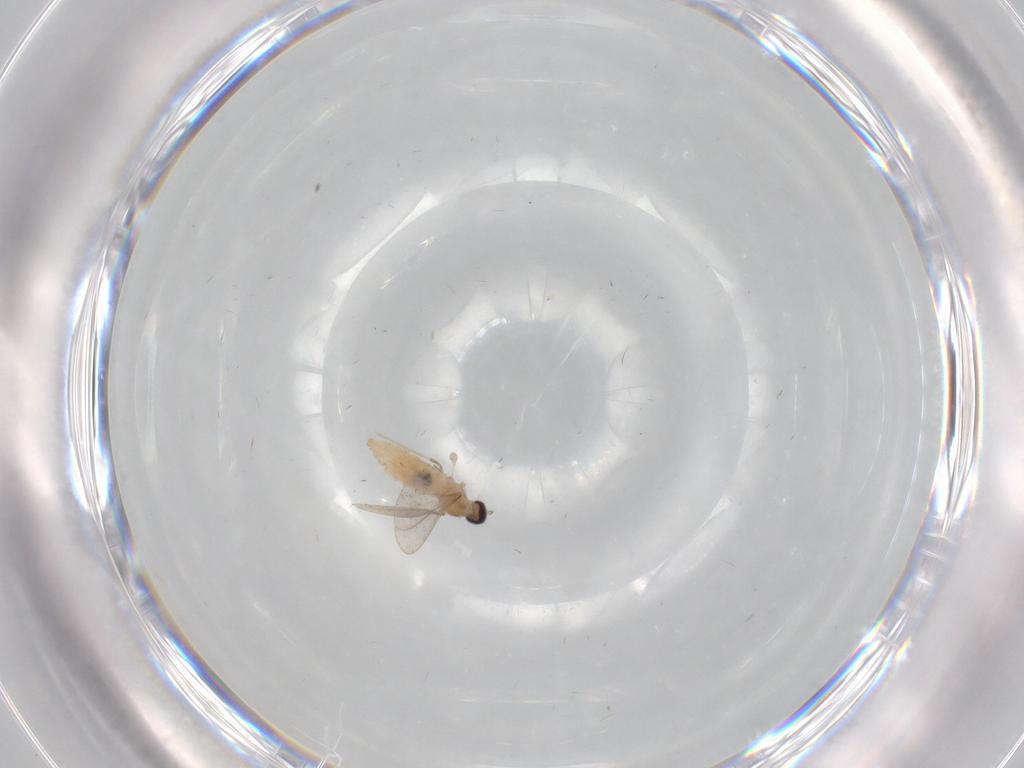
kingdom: Animalia
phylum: Arthropoda
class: Insecta
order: Diptera
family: Cecidomyiidae
